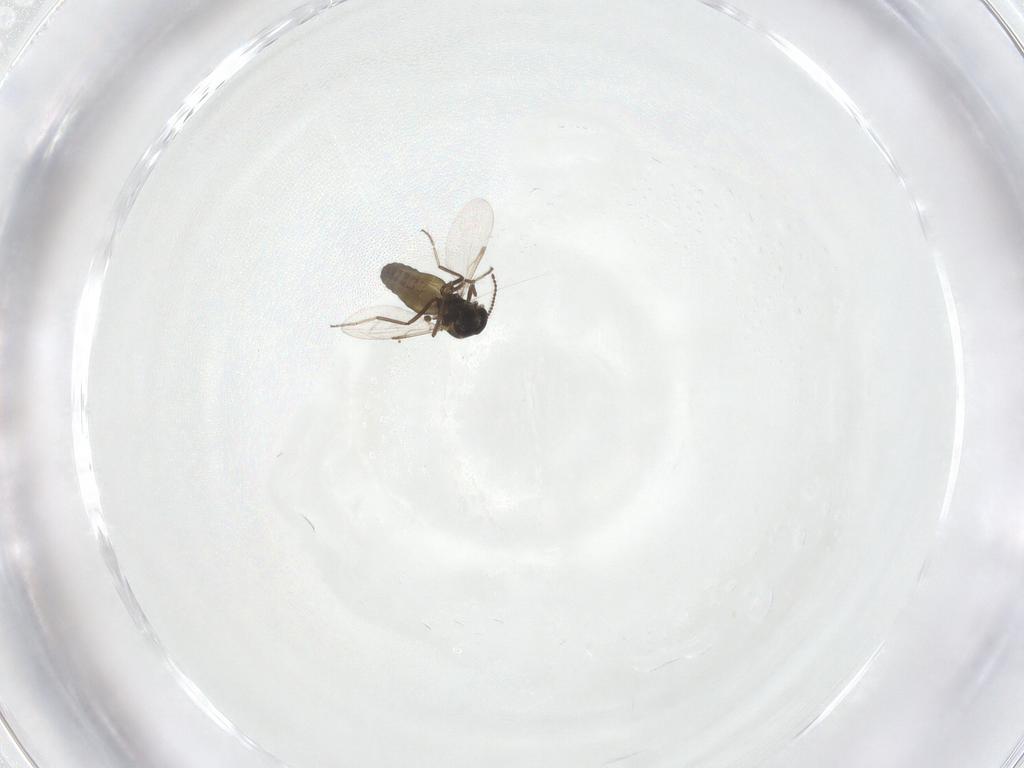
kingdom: Animalia
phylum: Arthropoda
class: Insecta
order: Diptera
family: Ceratopogonidae
